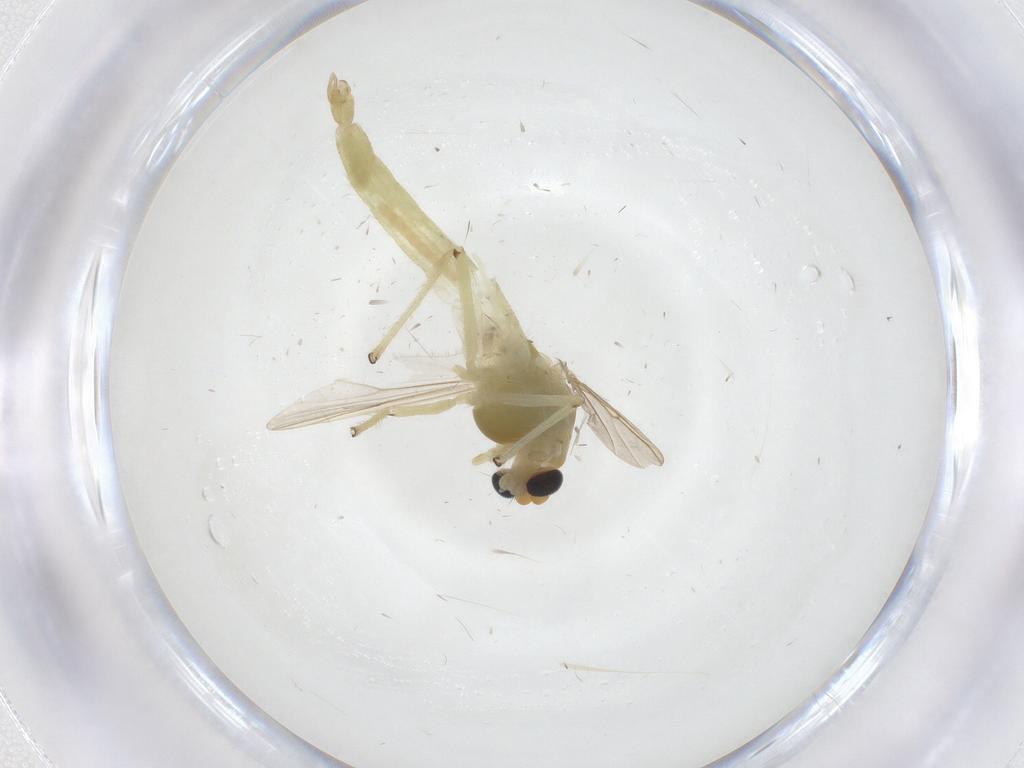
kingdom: Animalia
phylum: Arthropoda
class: Insecta
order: Diptera
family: Chironomidae
